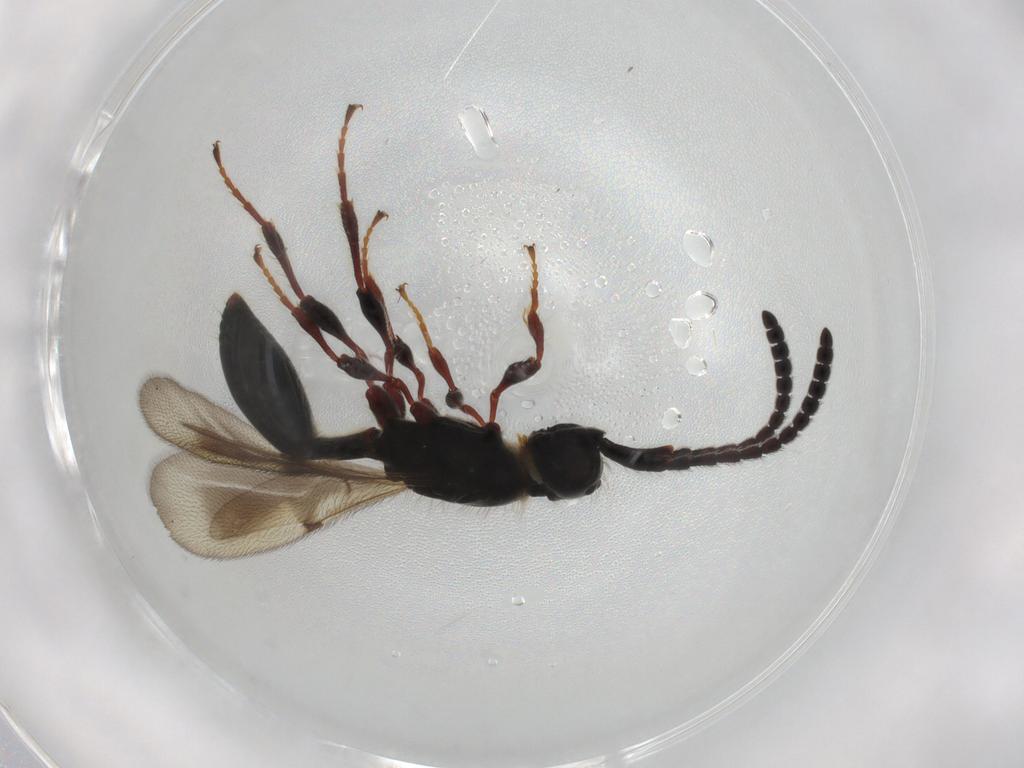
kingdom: Animalia
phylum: Arthropoda
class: Insecta
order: Hymenoptera
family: Diapriidae
